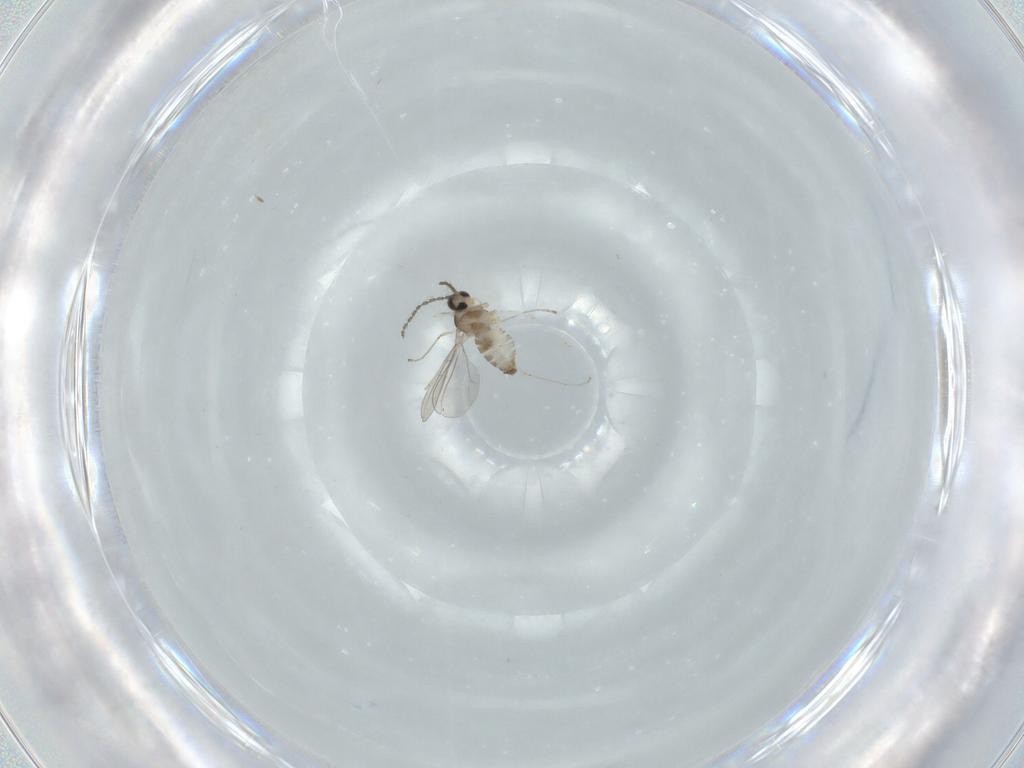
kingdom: Animalia
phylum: Arthropoda
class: Insecta
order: Diptera
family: Cecidomyiidae
